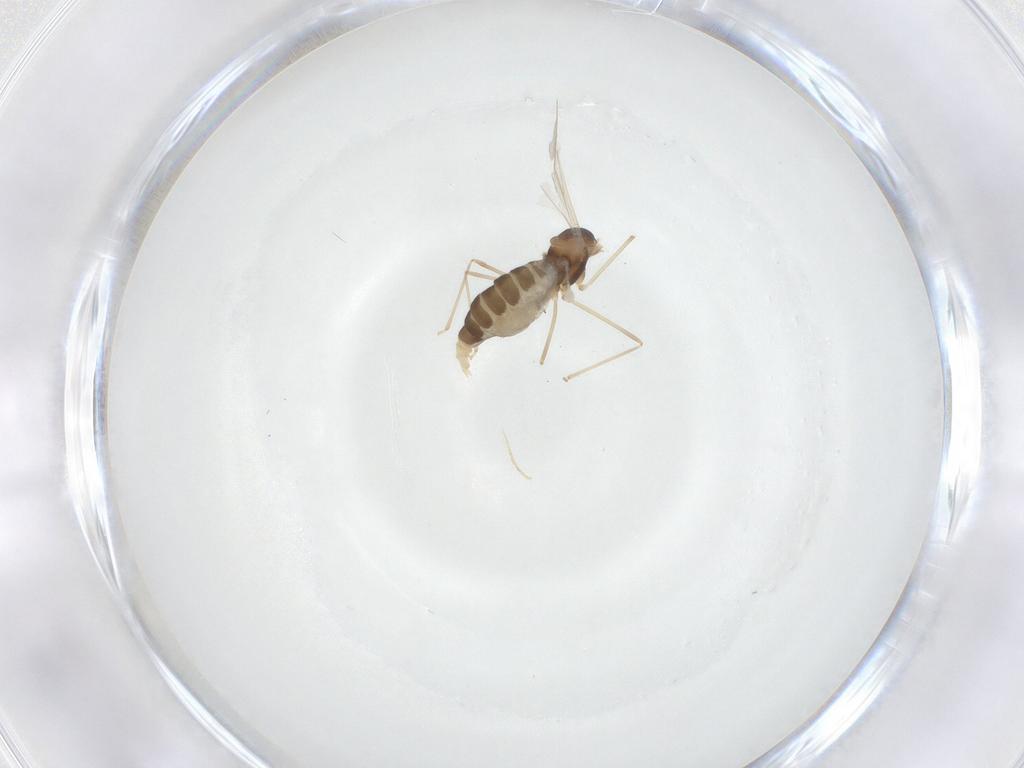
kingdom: Animalia
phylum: Arthropoda
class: Insecta
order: Diptera
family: Cecidomyiidae
